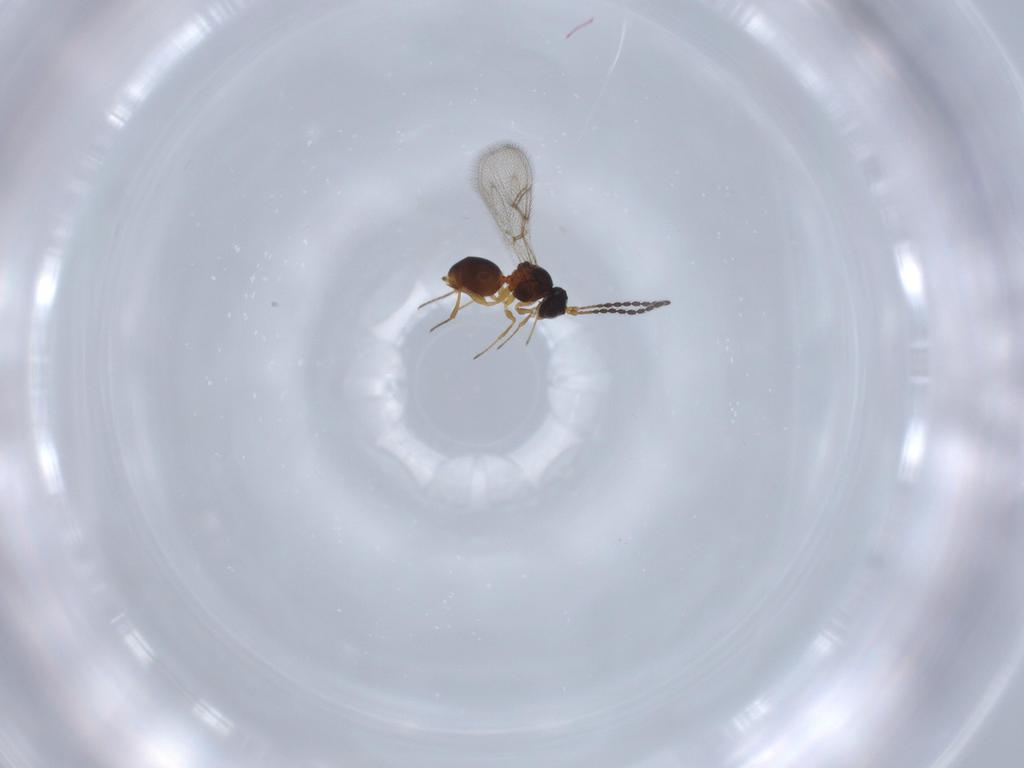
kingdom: Animalia
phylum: Arthropoda
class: Insecta
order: Hymenoptera
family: Figitidae
